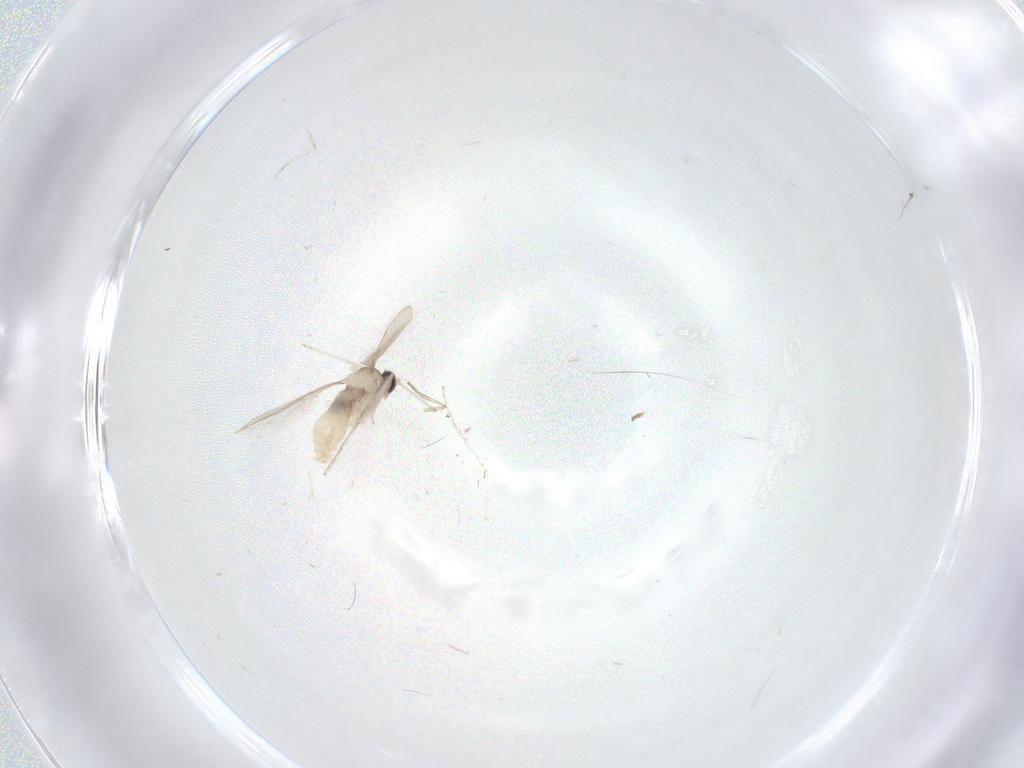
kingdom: Animalia
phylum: Arthropoda
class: Insecta
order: Diptera
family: Cecidomyiidae
